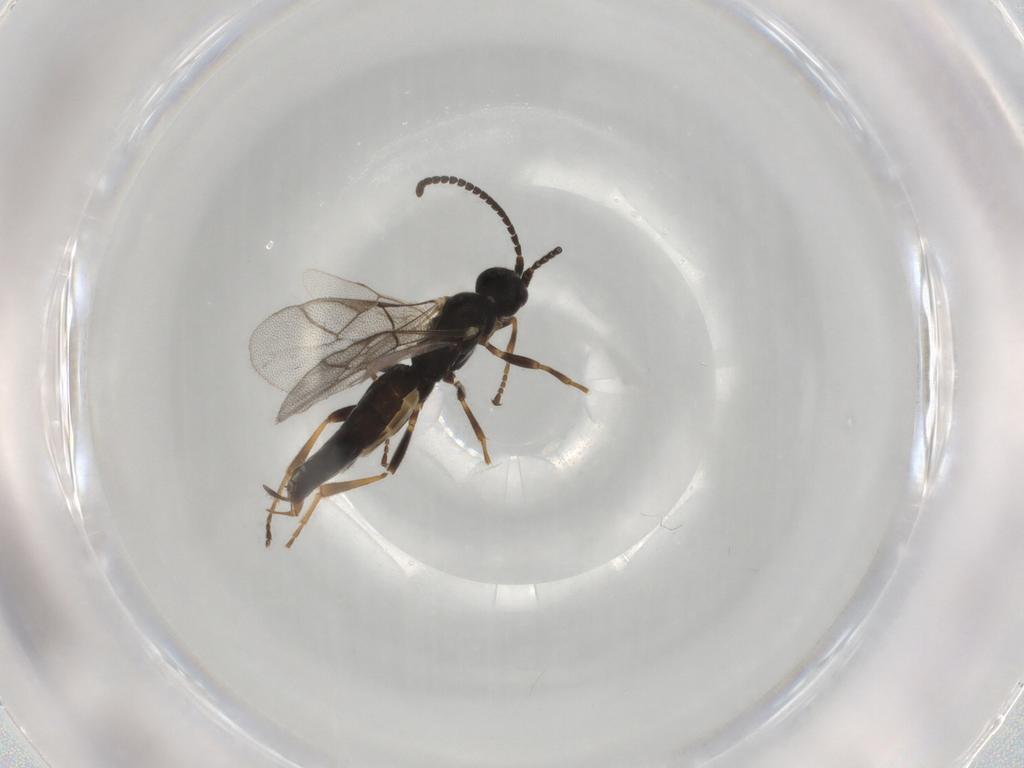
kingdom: Animalia
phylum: Arthropoda
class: Insecta
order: Hymenoptera
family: Ichneumonidae
